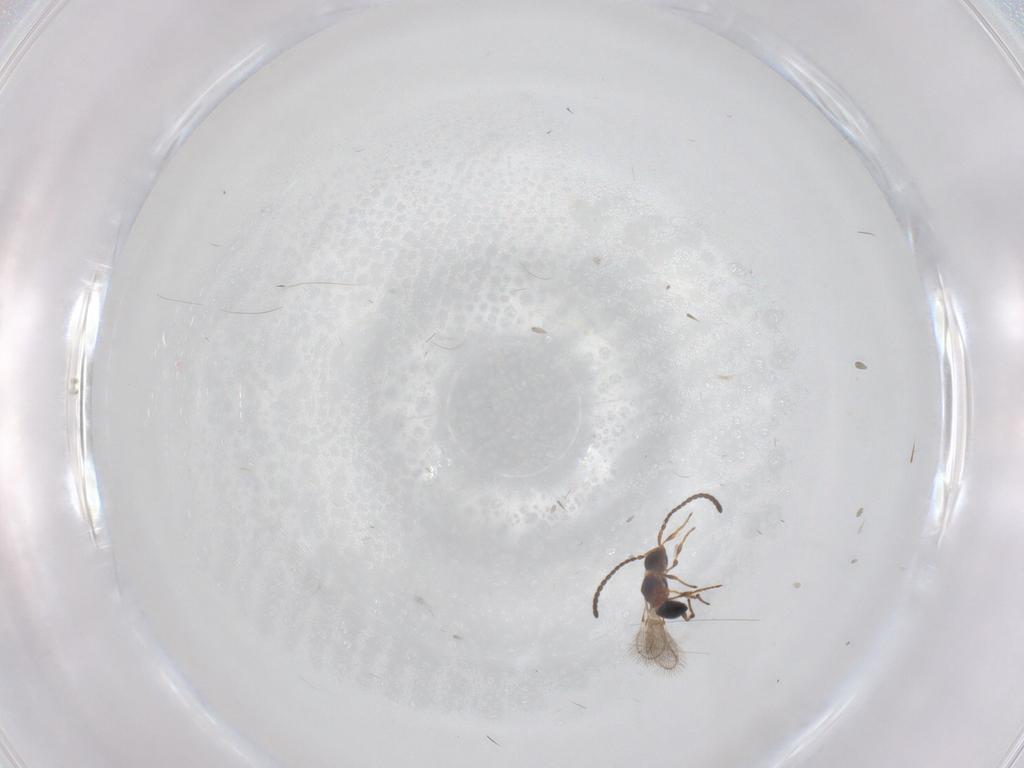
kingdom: Animalia
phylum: Arthropoda
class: Insecta
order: Hymenoptera
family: Diapriidae
